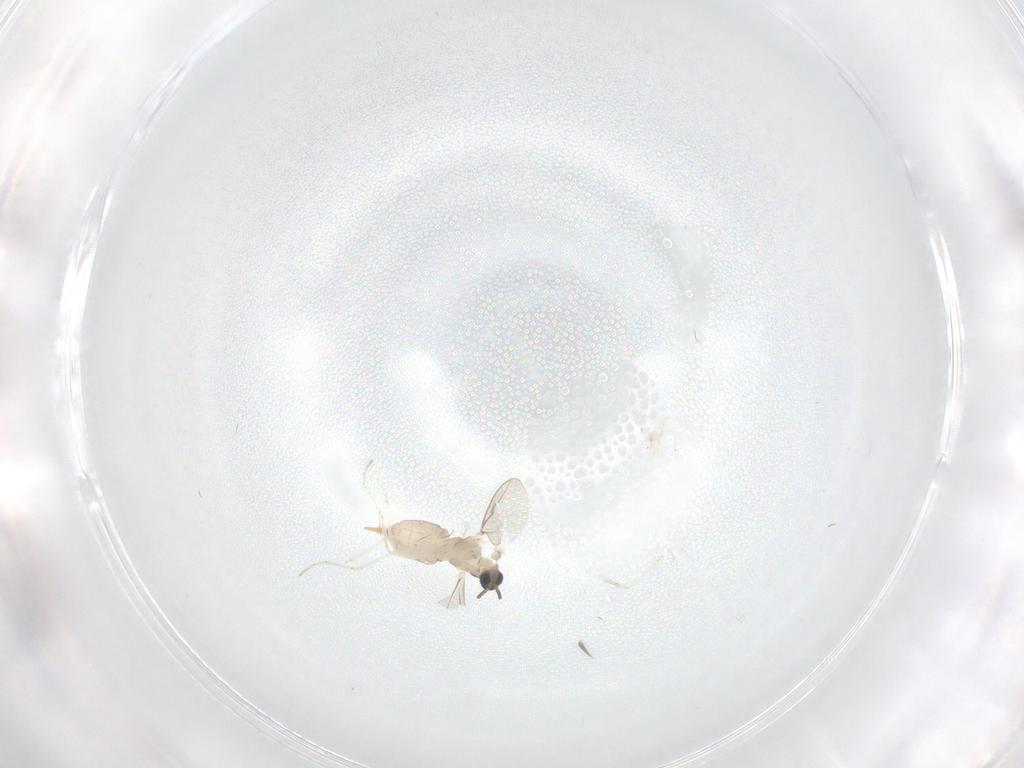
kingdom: Animalia
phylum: Arthropoda
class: Insecta
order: Diptera
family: Cecidomyiidae
